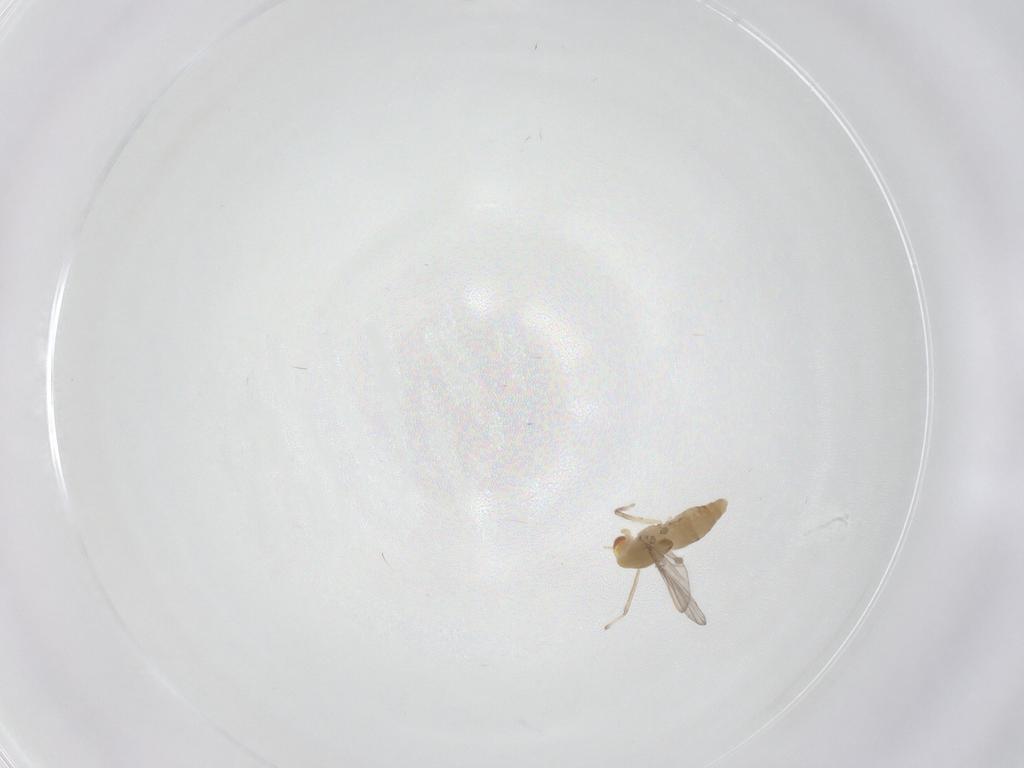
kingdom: Animalia
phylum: Arthropoda
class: Insecta
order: Diptera
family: Chironomidae
